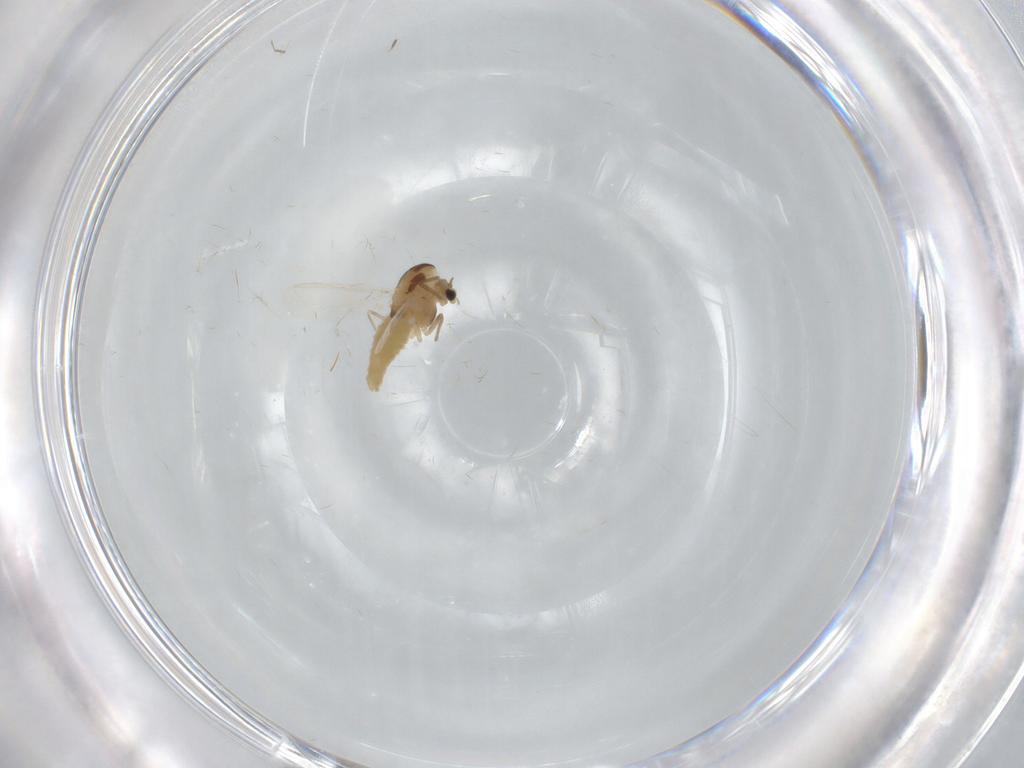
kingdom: Animalia
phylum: Arthropoda
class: Insecta
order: Diptera
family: Chironomidae
